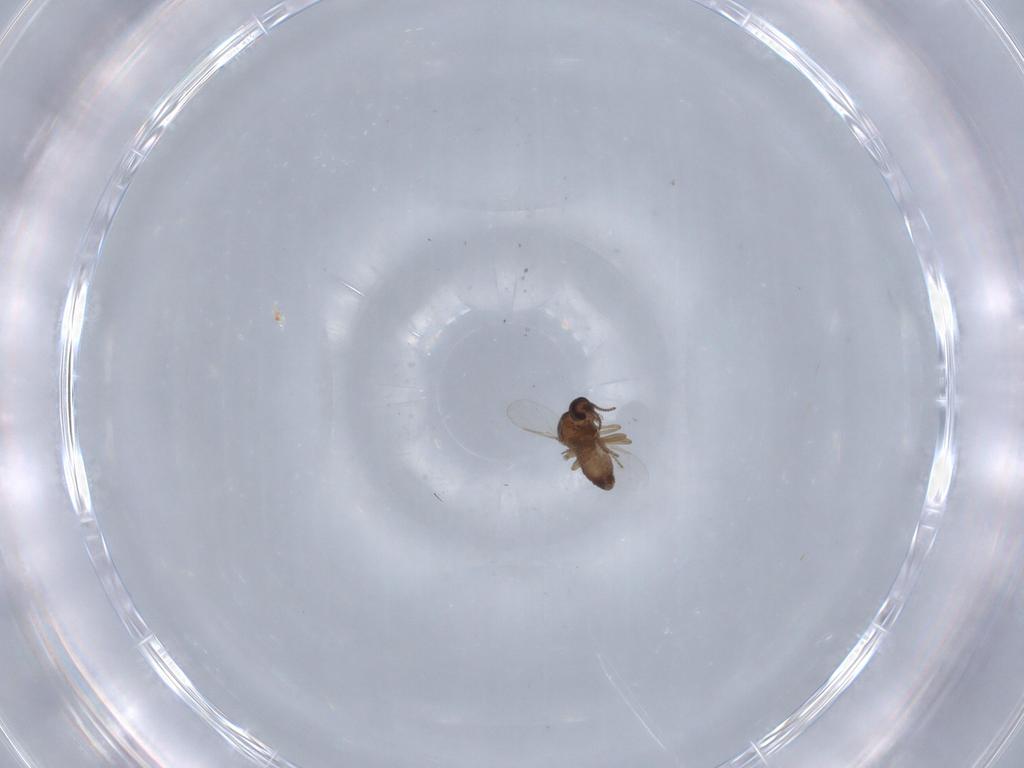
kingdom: Animalia
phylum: Arthropoda
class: Insecta
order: Diptera
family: Ceratopogonidae
